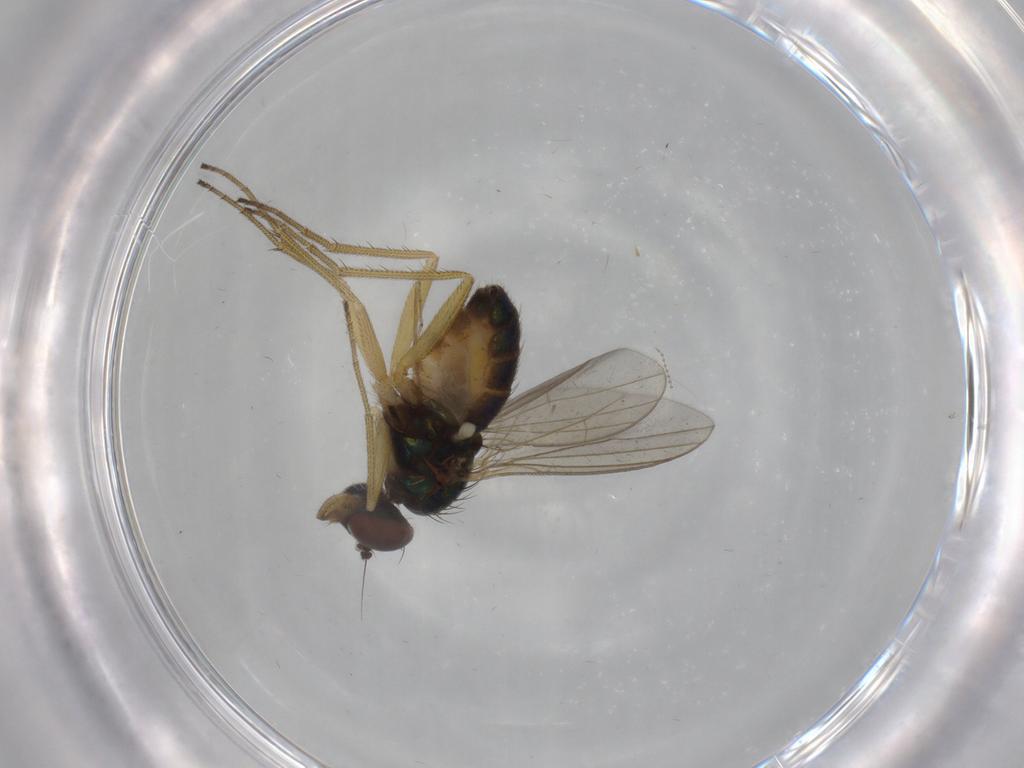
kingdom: Animalia
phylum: Arthropoda
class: Insecta
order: Diptera
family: Dolichopodidae
